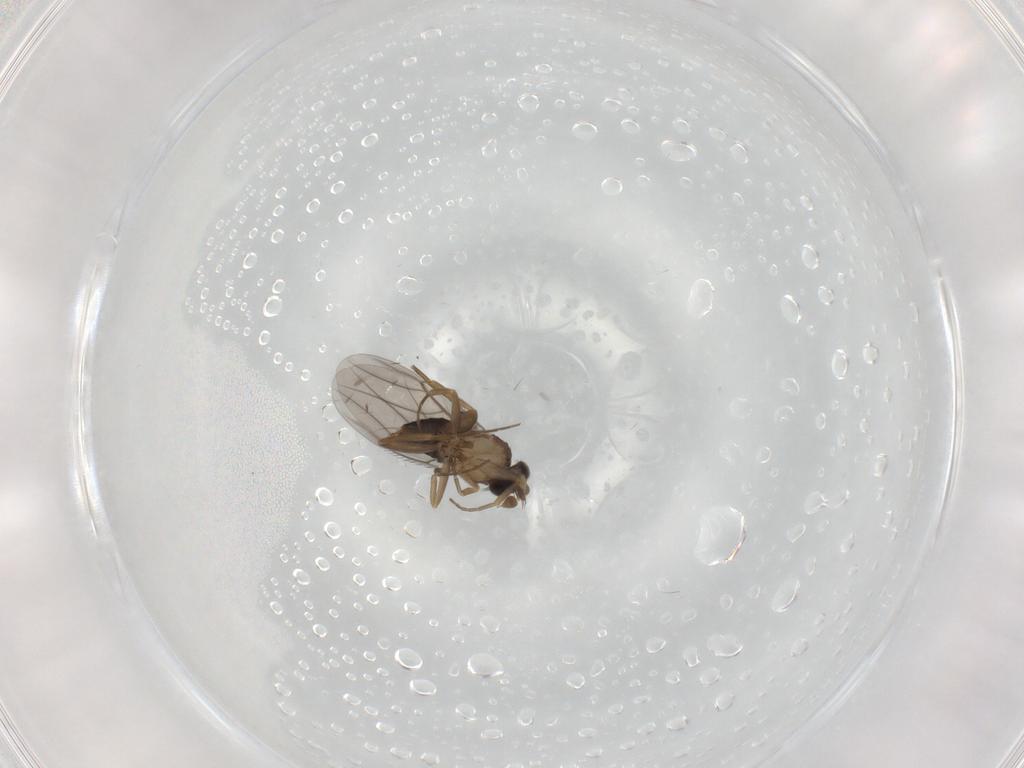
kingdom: Animalia
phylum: Arthropoda
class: Insecta
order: Diptera
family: Phoridae
